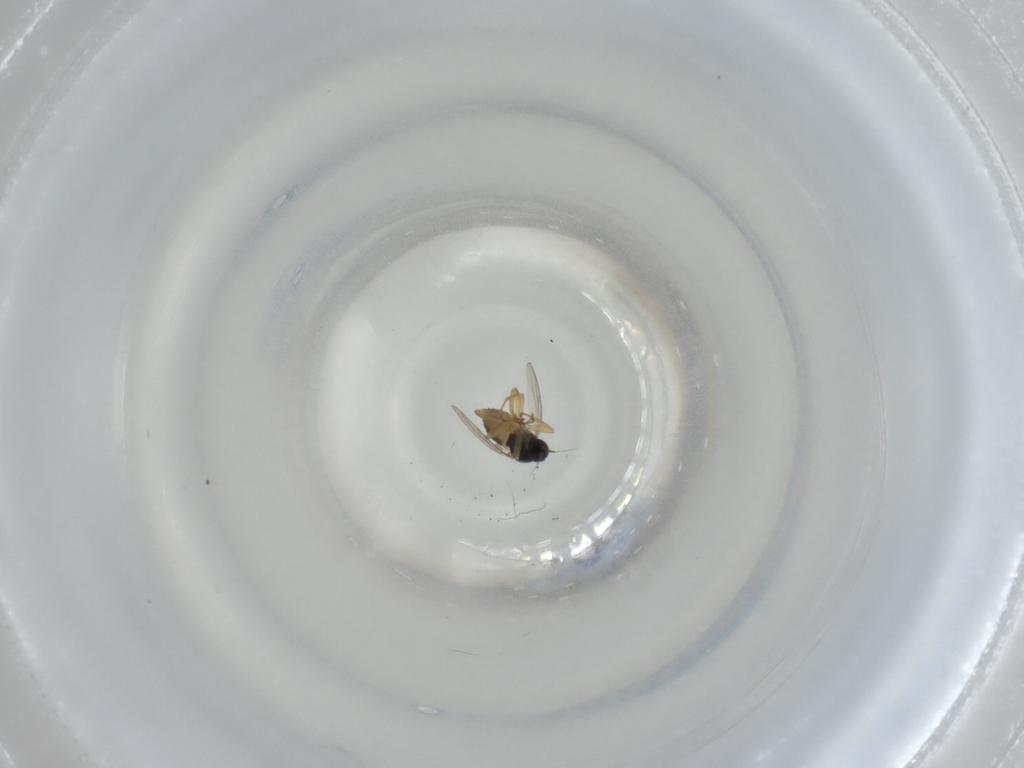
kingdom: Animalia
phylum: Arthropoda
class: Insecta
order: Diptera
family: Hybotidae
